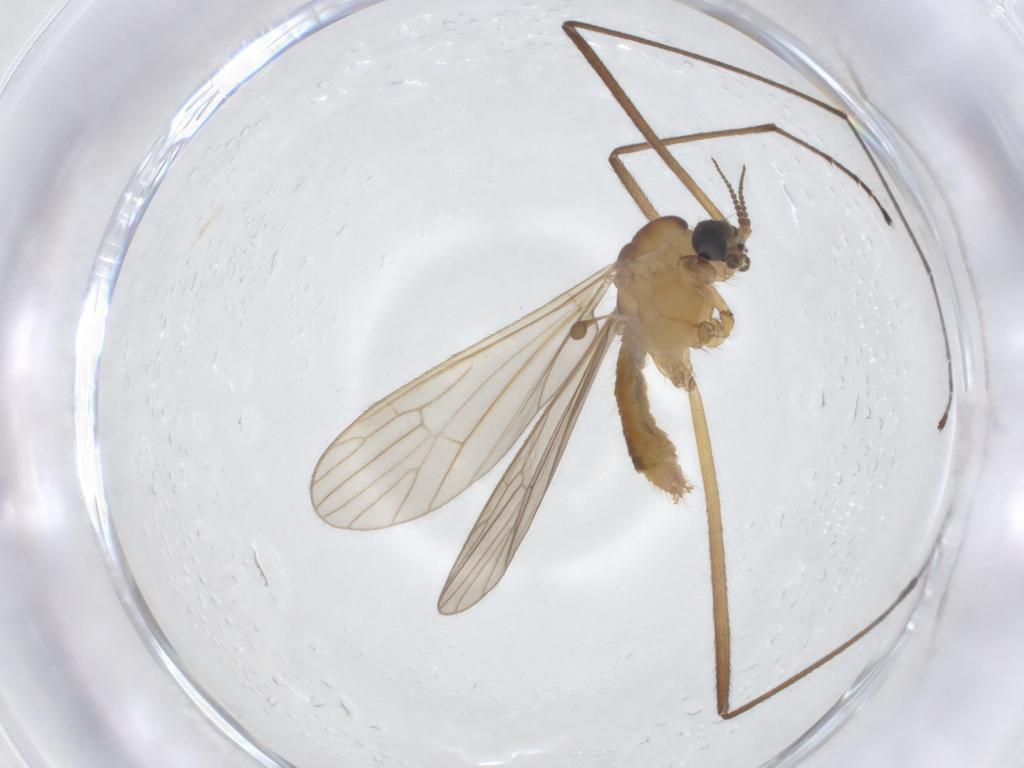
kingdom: Animalia
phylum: Arthropoda
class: Insecta
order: Diptera
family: Limoniidae
